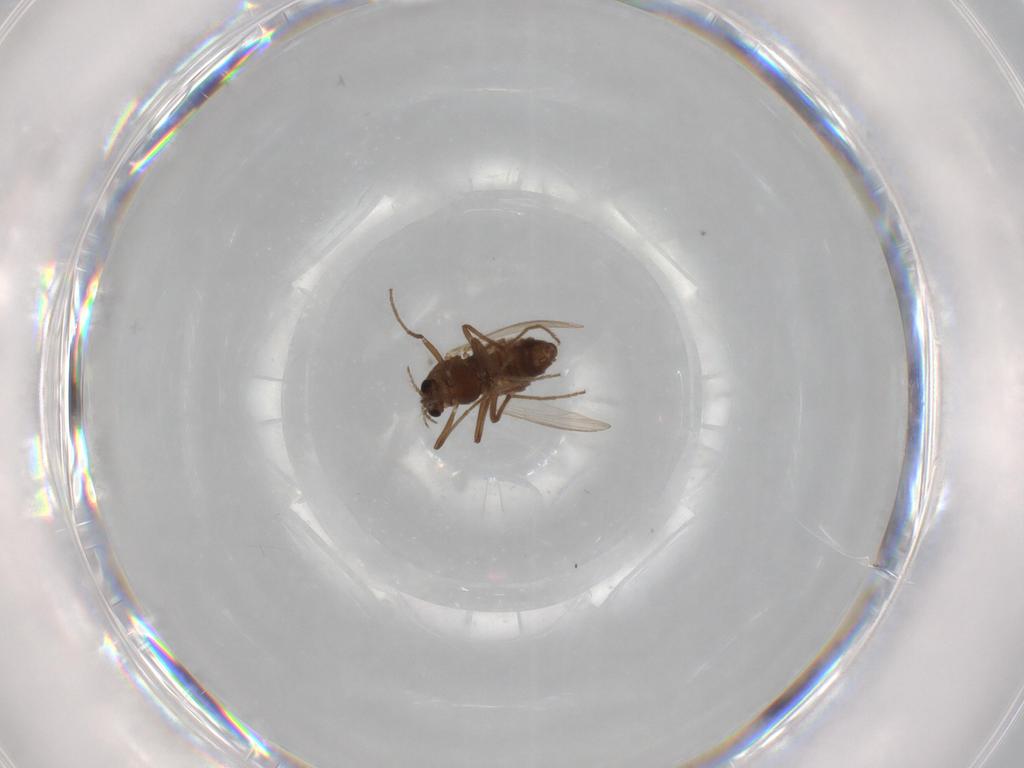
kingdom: Animalia
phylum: Arthropoda
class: Insecta
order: Diptera
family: Chironomidae
